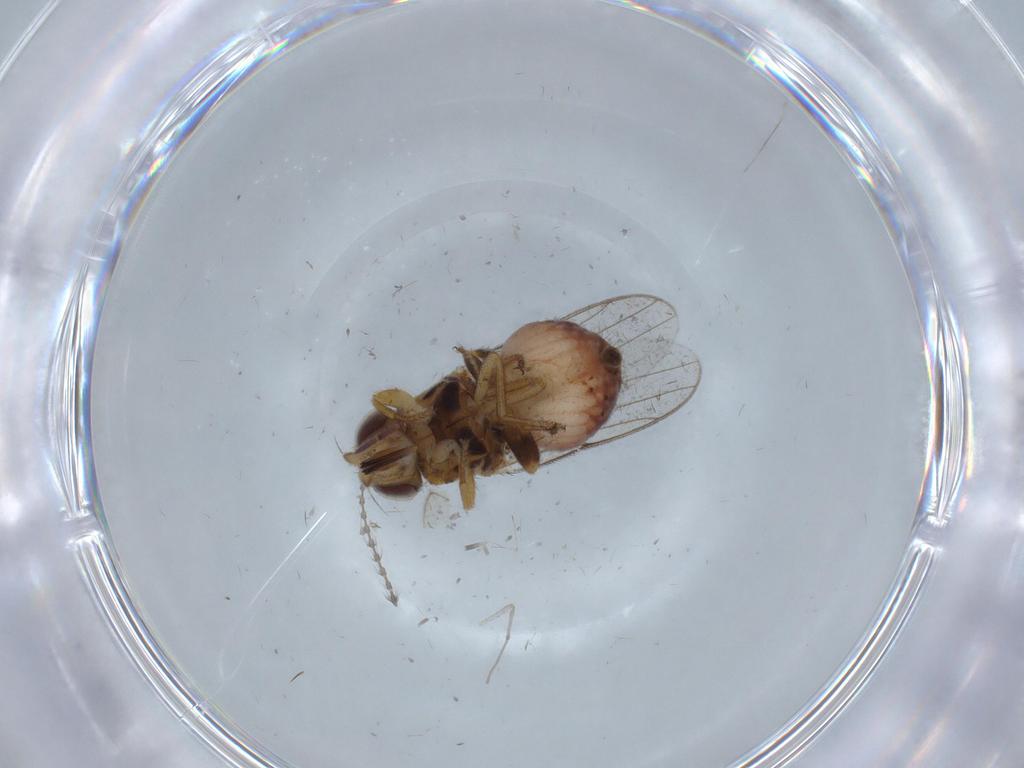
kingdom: Animalia
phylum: Arthropoda
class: Insecta
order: Diptera
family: Chloropidae
